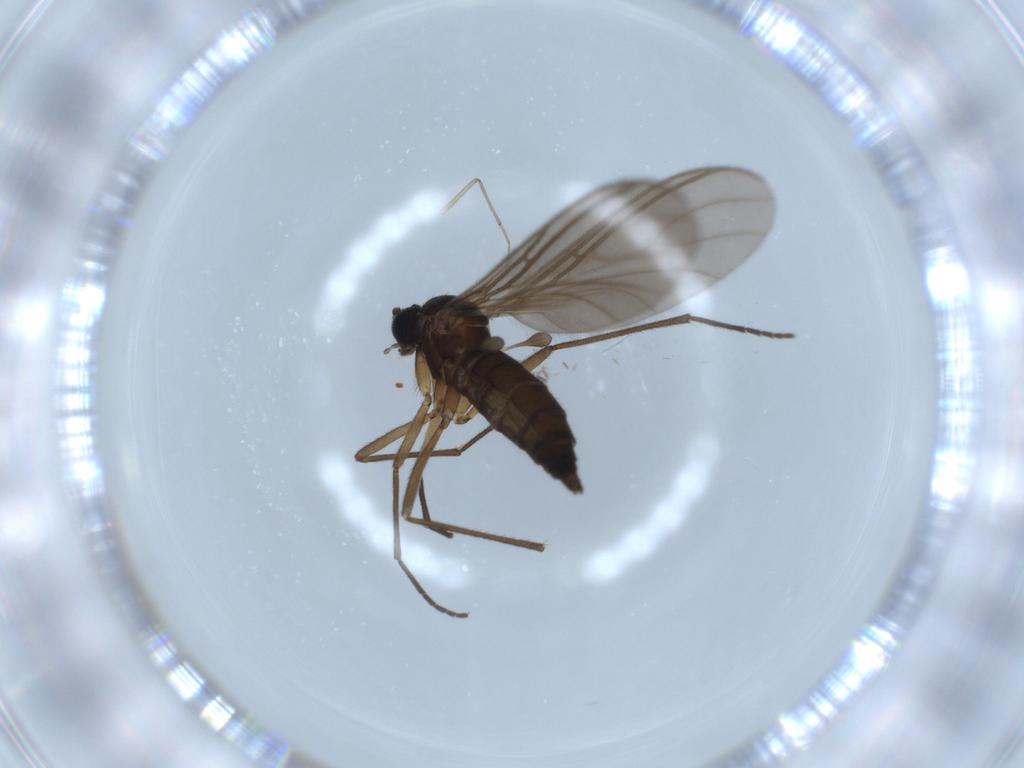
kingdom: Animalia
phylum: Arthropoda
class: Insecta
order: Diptera
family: Sciaridae
